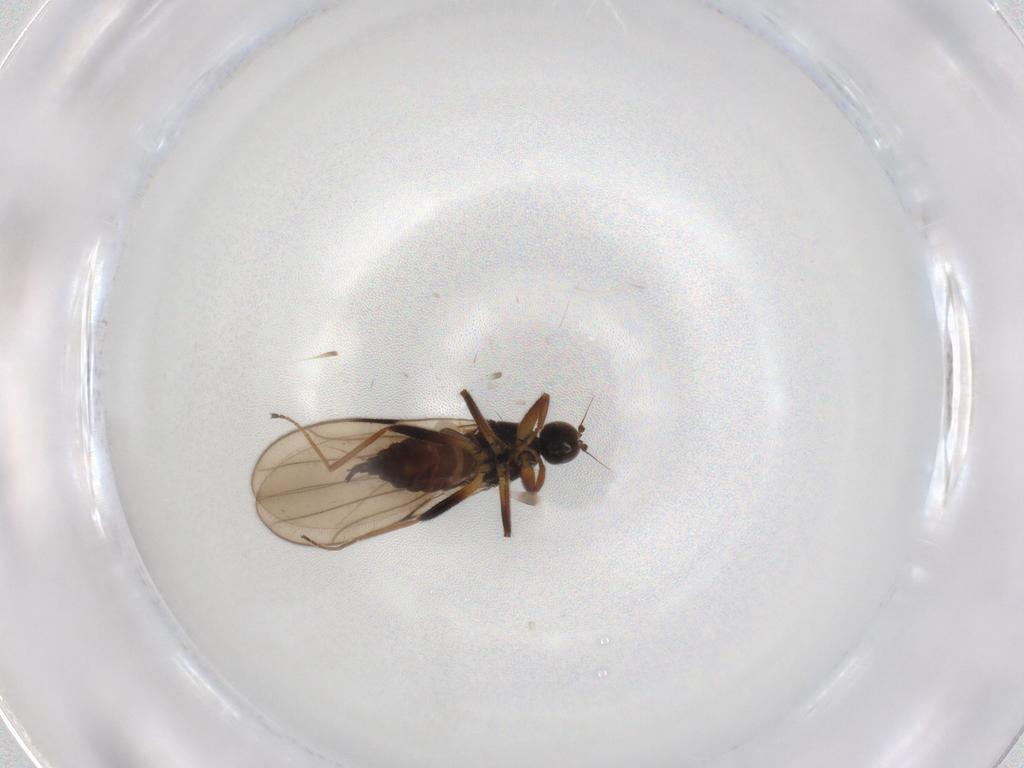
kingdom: Animalia
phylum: Arthropoda
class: Insecta
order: Diptera
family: Hybotidae
